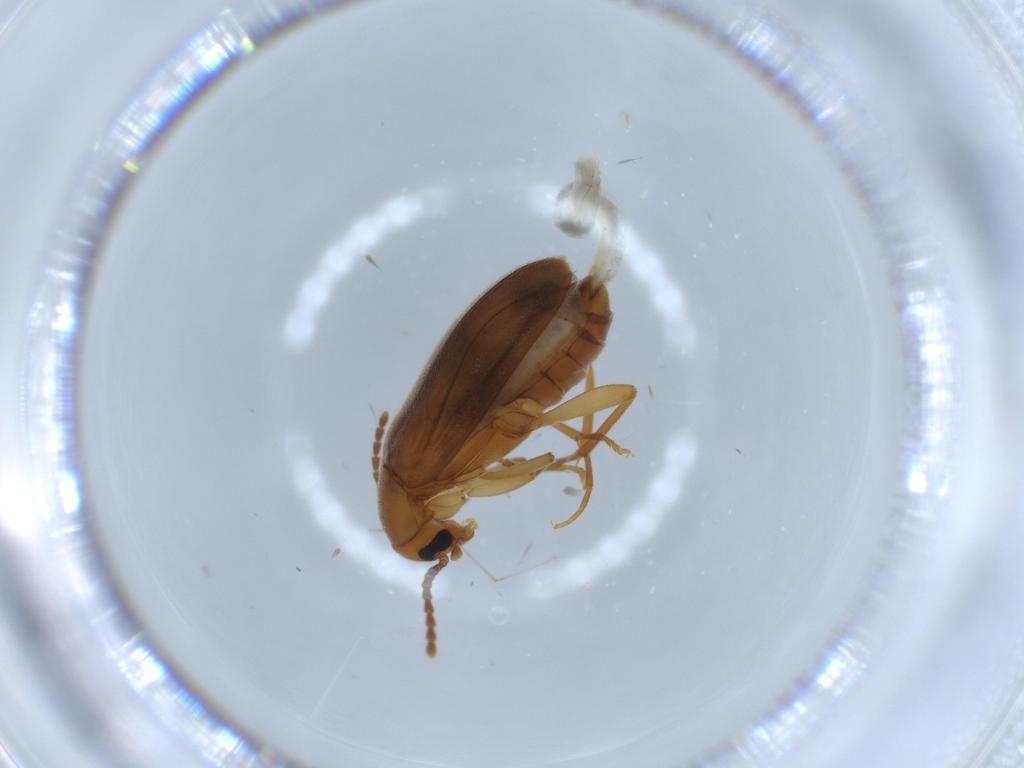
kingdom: Animalia
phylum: Arthropoda
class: Insecta
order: Coleoptera
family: Scraptiidae
